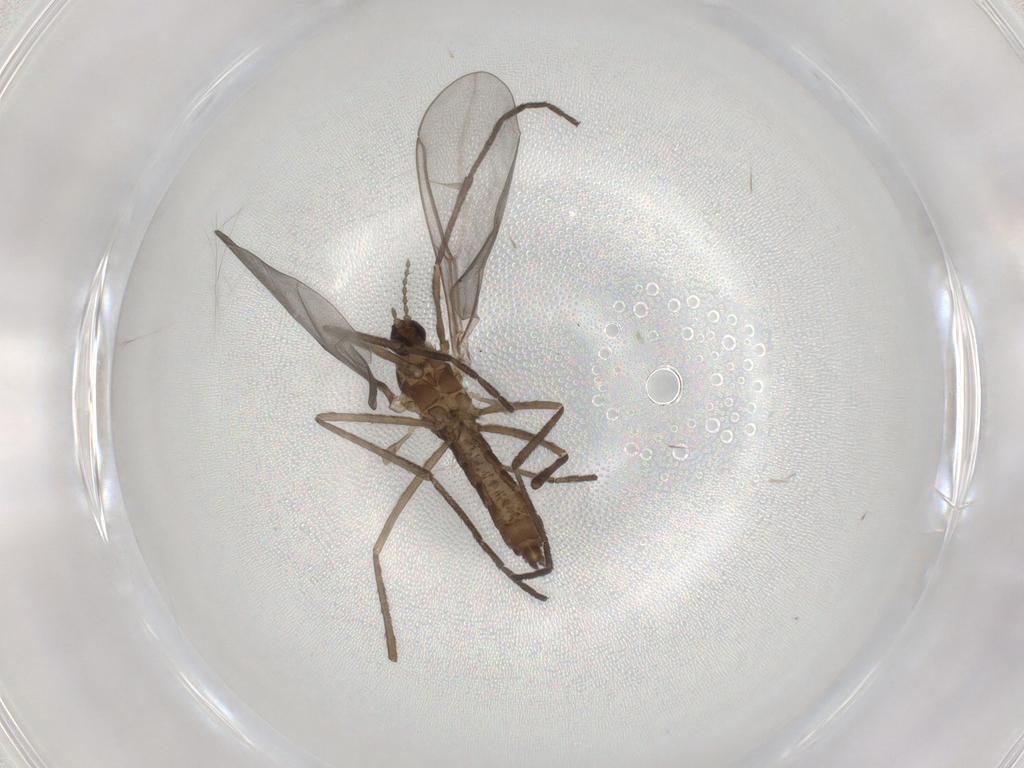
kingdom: Animalia
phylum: Arthropoda
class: Insecta
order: Diptera
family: Cecidomyiidae
